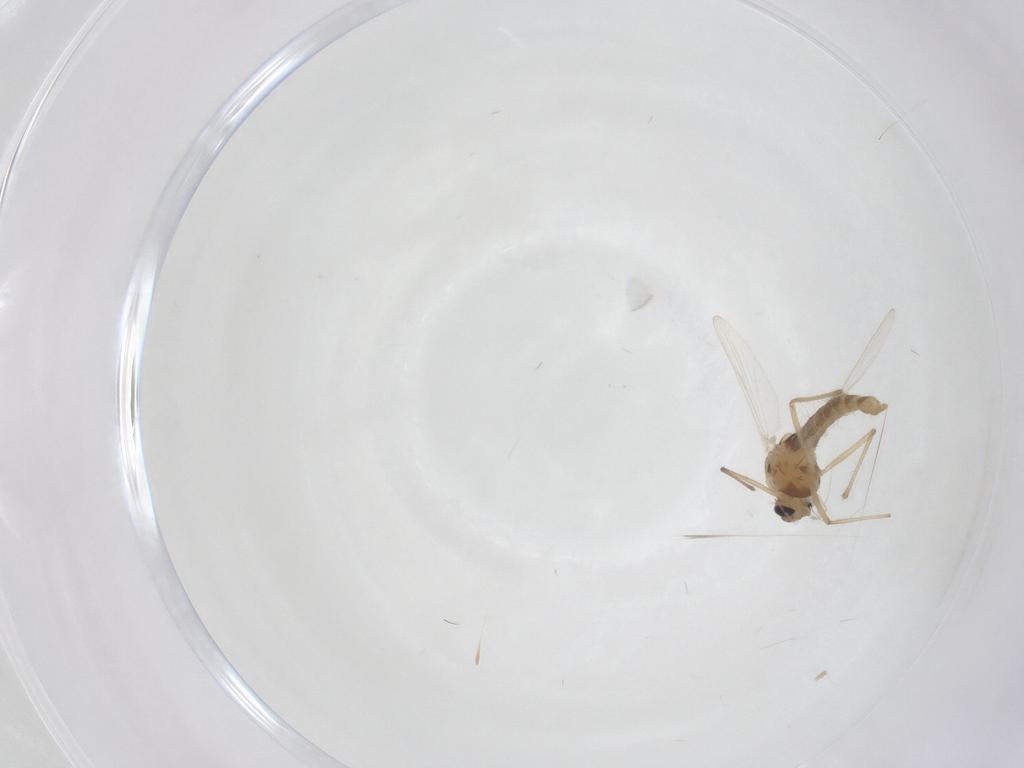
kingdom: Animalia
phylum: Arthropoda
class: Insecta
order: Diptera
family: Chironomidae
